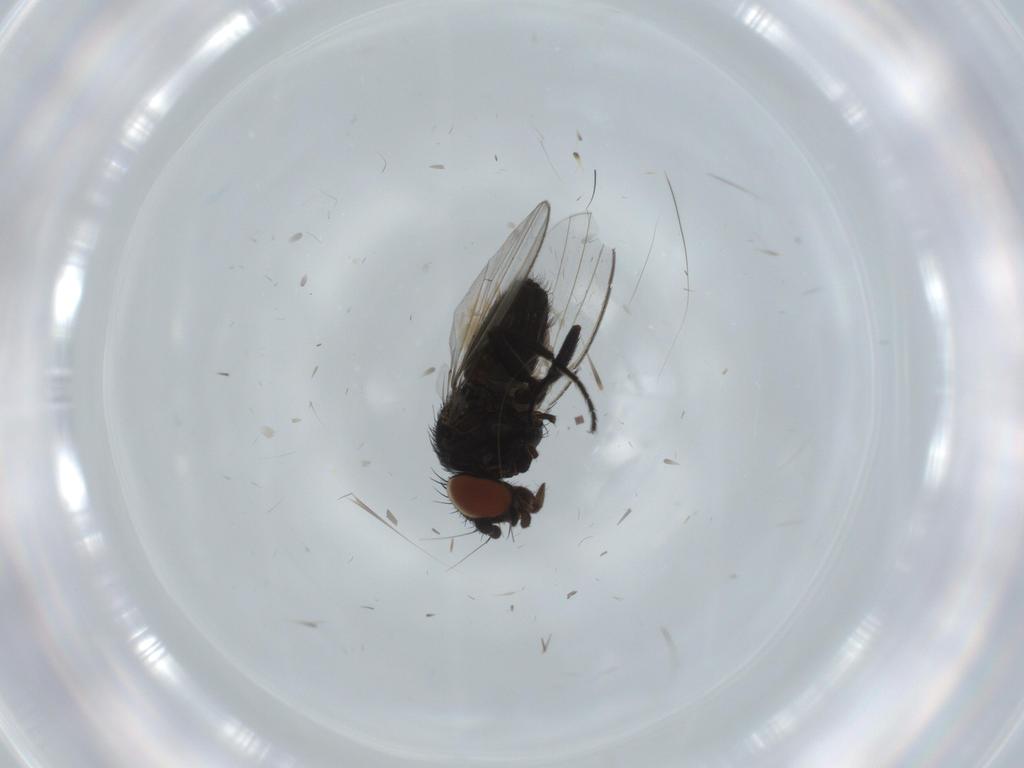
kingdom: Animalia
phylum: Arthropoda
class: Insecta
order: Diptera
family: Milichiidae
